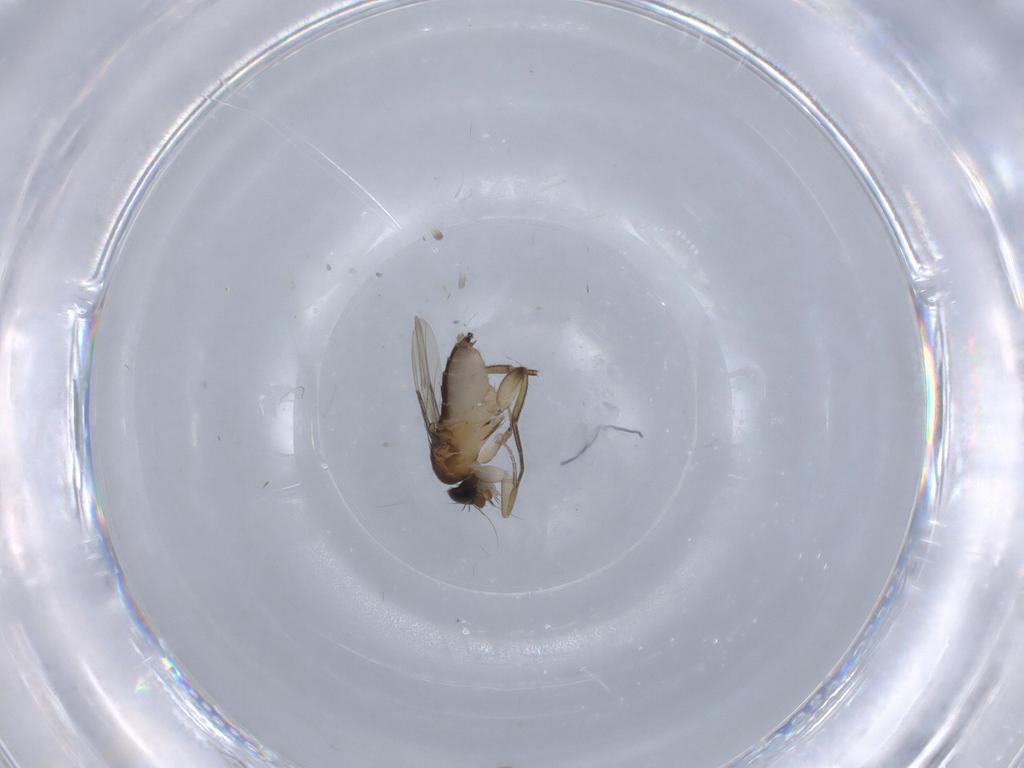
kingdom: Animalia
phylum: Arthropoda
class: Insecta
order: Diptera
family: Phoridae
